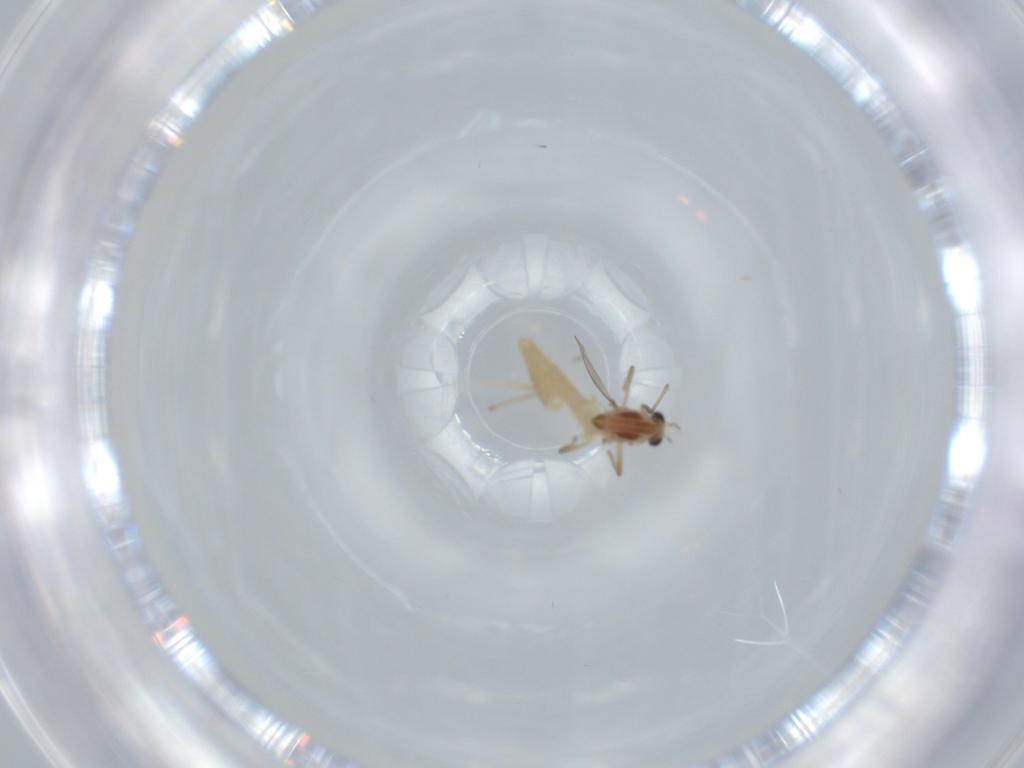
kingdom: Animalia
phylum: Arthropoda
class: Insecta
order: Diptera
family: Chironomidae
